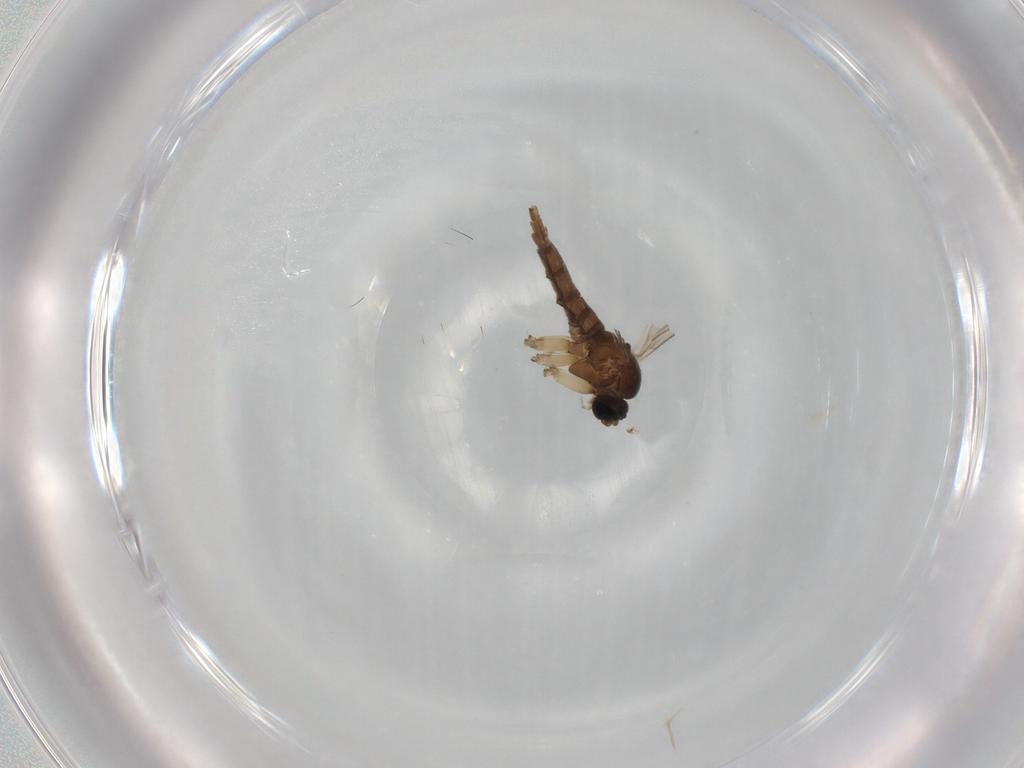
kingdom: Animalia
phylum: Arthropoda
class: Insecta
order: Diptera
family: Sciaridae
